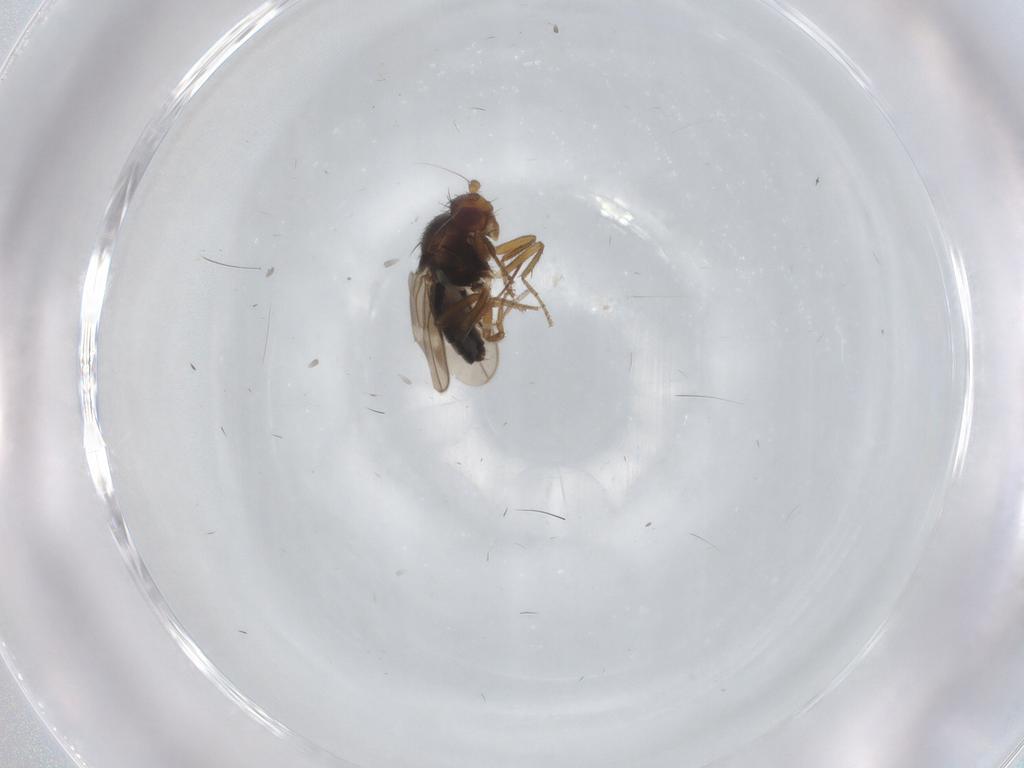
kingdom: Animalia
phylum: Arthropoda
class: Insecta
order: Diptera
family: Sphaeroceridae
